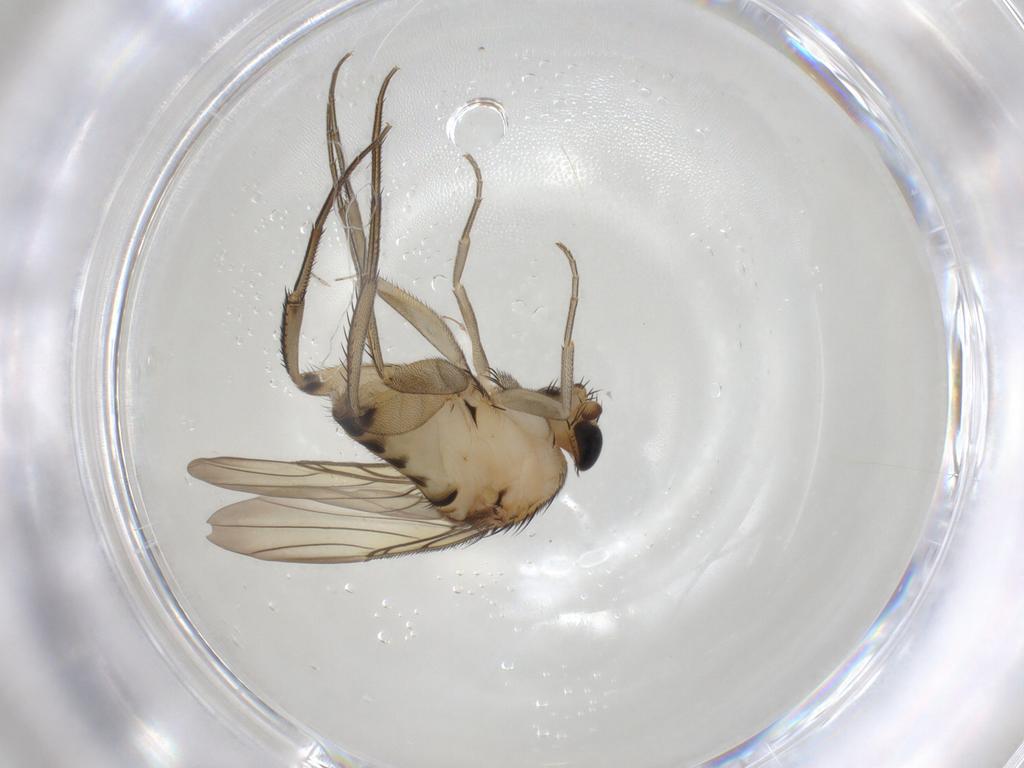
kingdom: Animalia
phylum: Arthropoda
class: Insecta
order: Diptera
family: Phoridae
